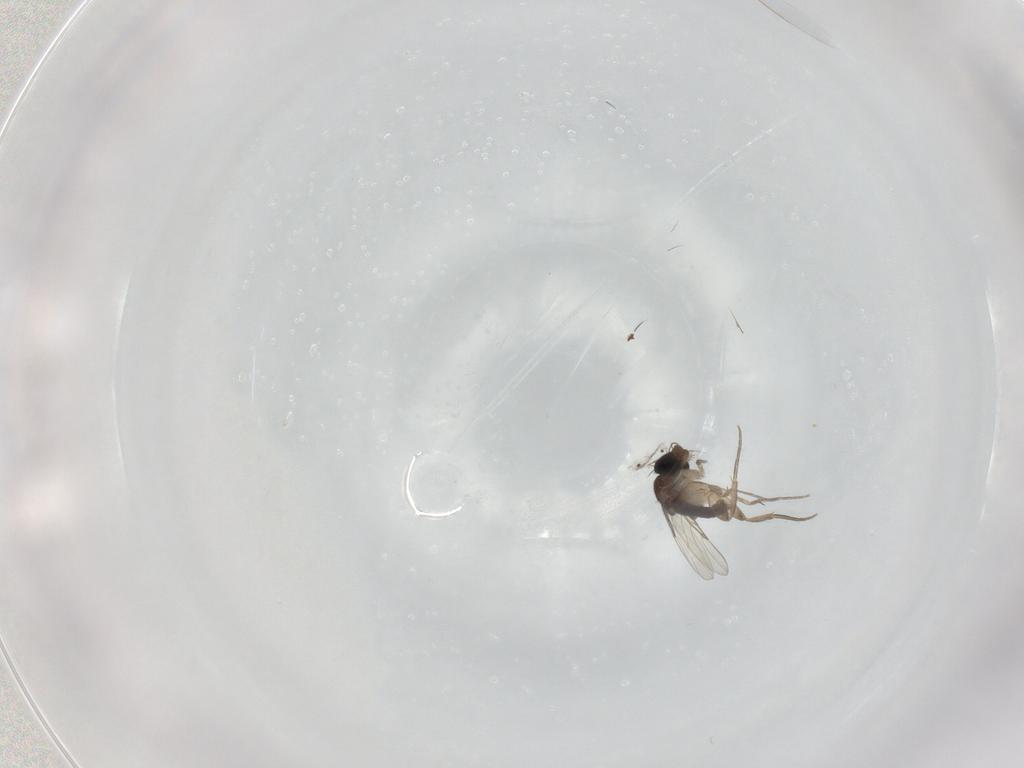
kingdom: Animalia
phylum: Arthropoda
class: Insecta
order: Diptera
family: Phoridae
